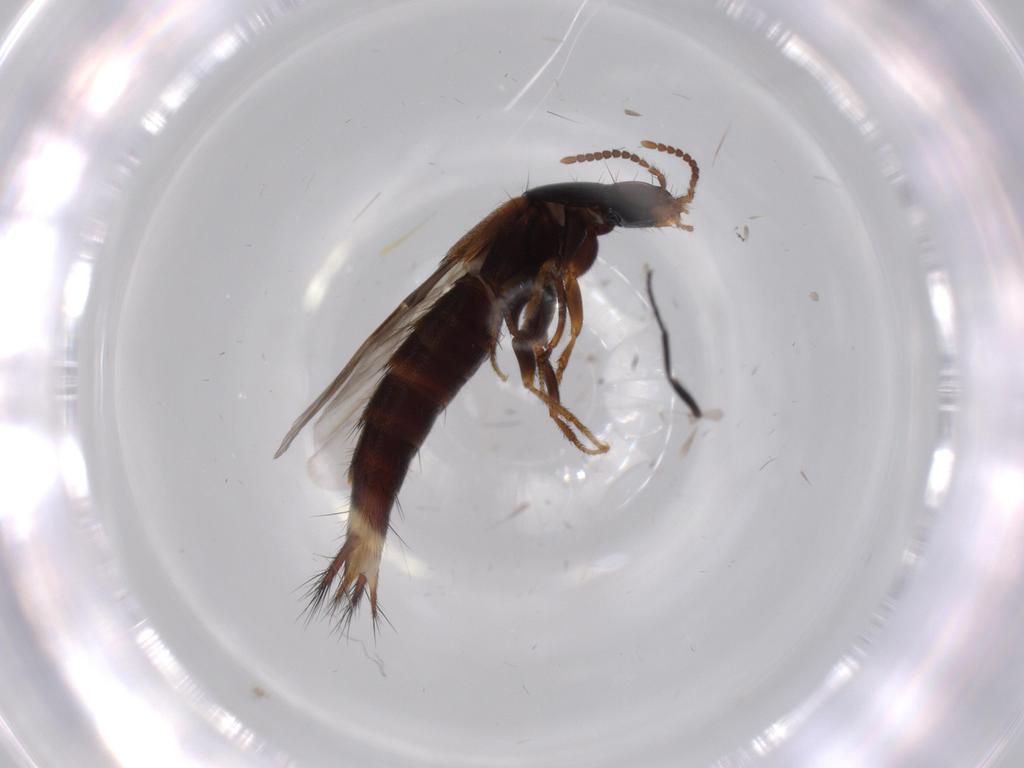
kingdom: Animalia
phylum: Arthropoda
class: Insecta
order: Coleoptera
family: Staphylinidae
